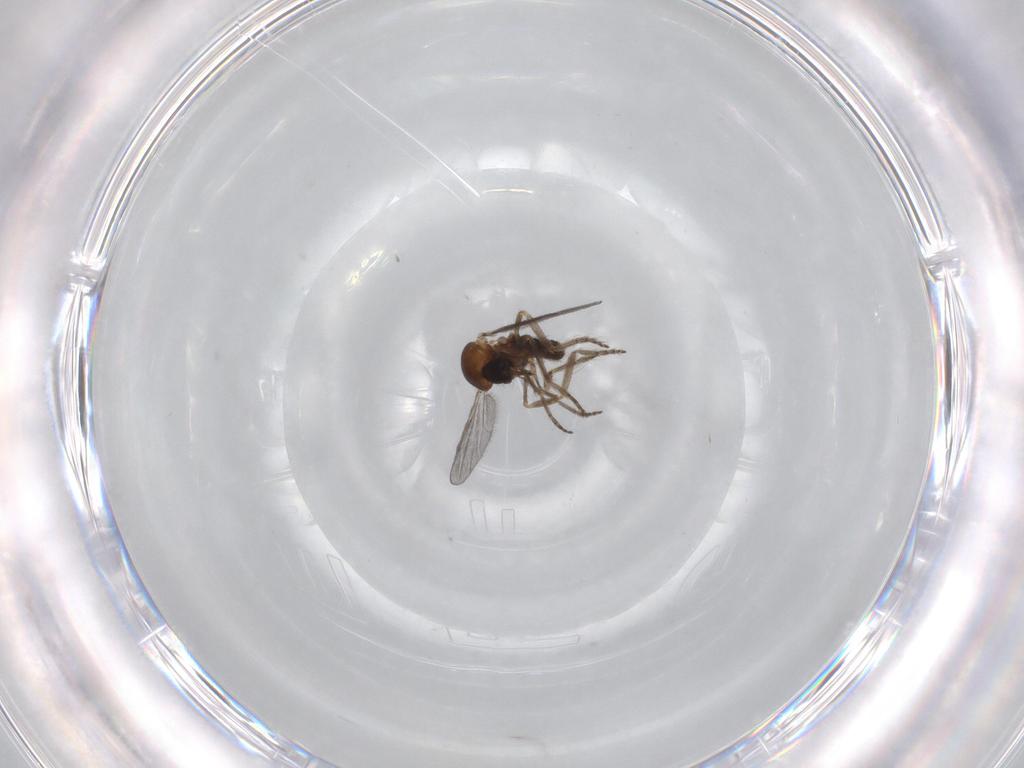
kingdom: Animalia
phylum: Arthropoda
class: Insecta
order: Diptera
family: Ceratopogonidae
